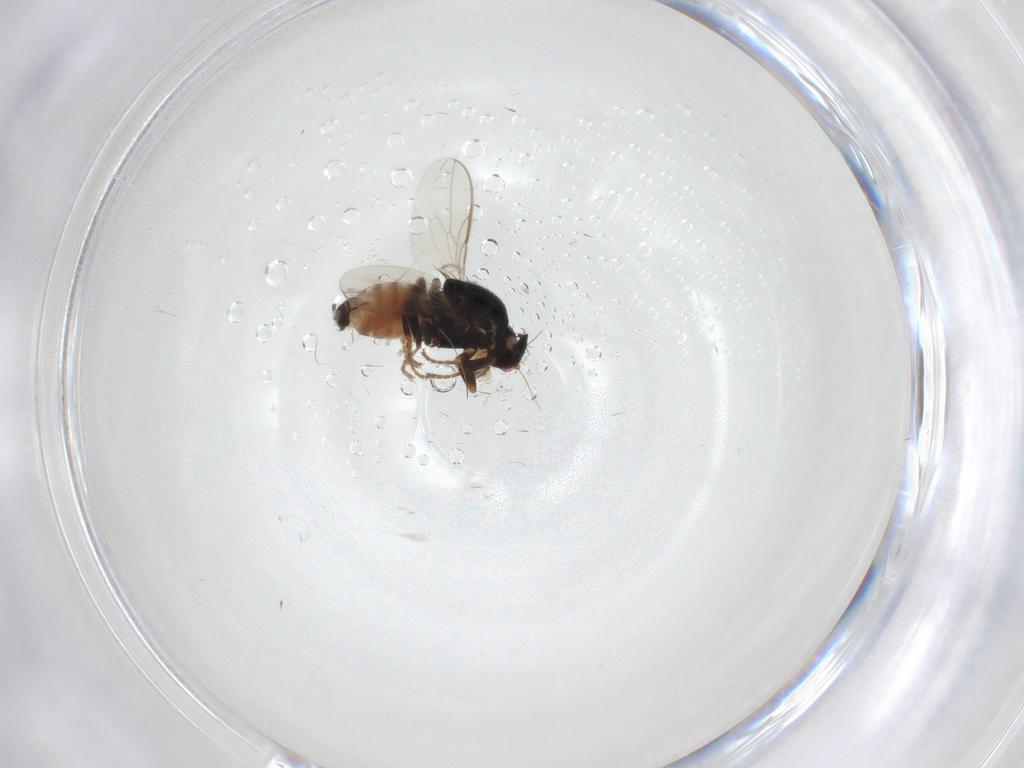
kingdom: Animalia
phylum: Arthropoda
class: Insecta
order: Diptera
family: Sphaeroceridae
